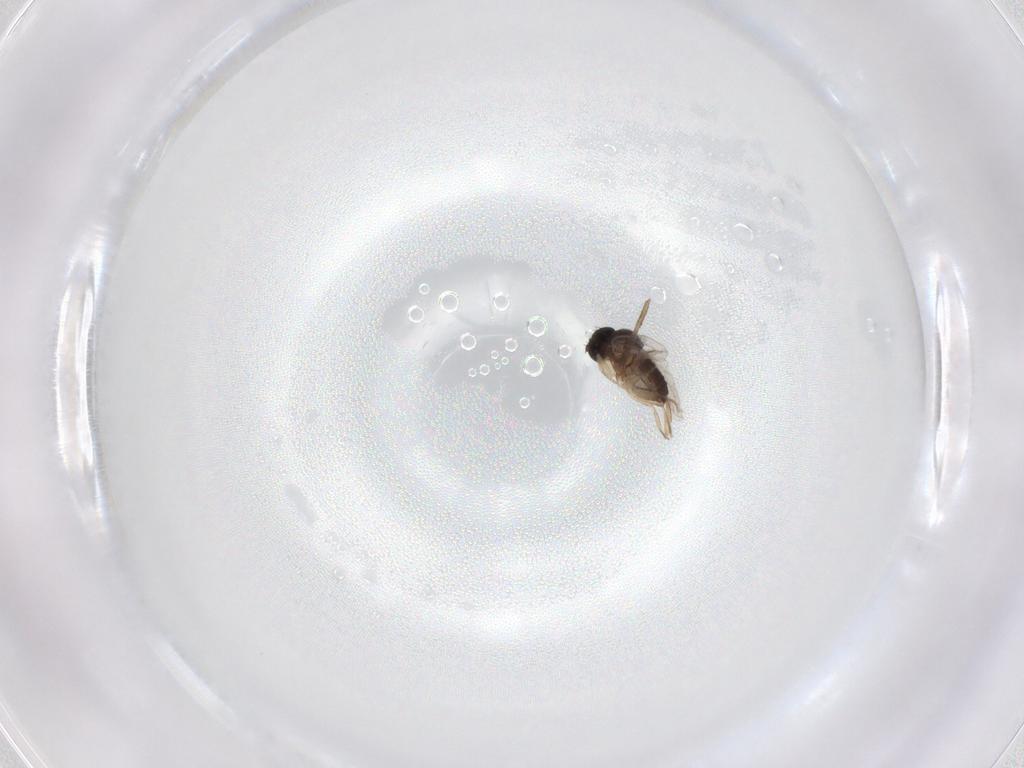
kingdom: Animalia
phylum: Arthropoda
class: Insecta
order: Diptera
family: Phoridae
